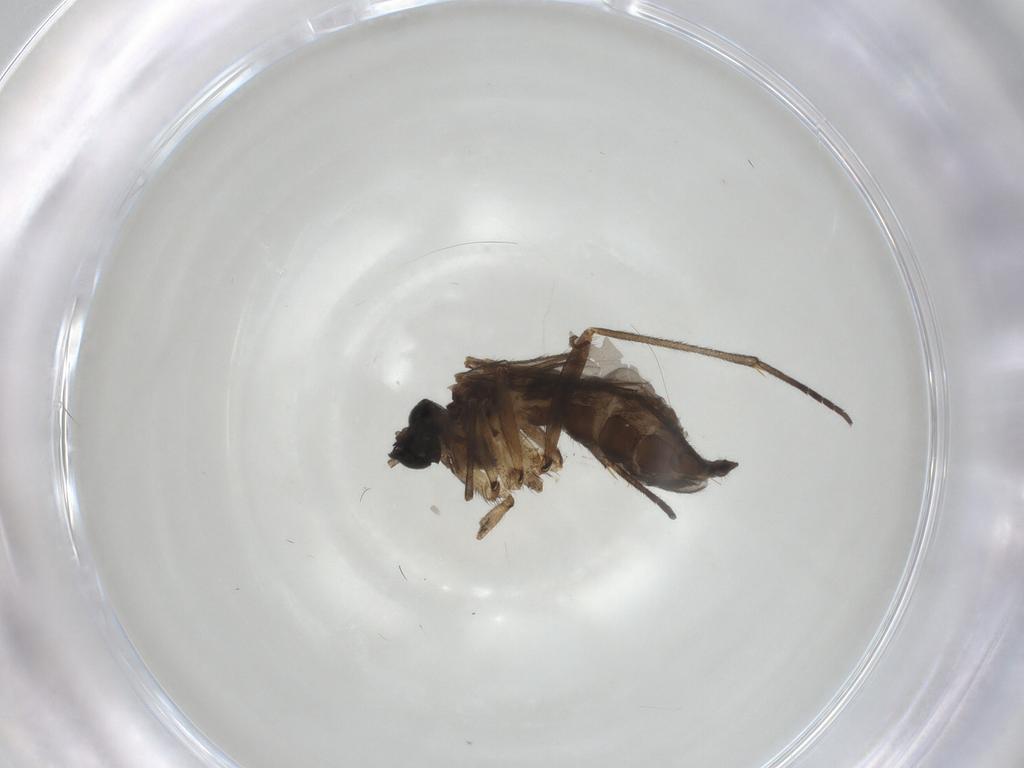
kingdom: Animalia
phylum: Arthropoda
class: Insecta
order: Diptera
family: Sciaridae
